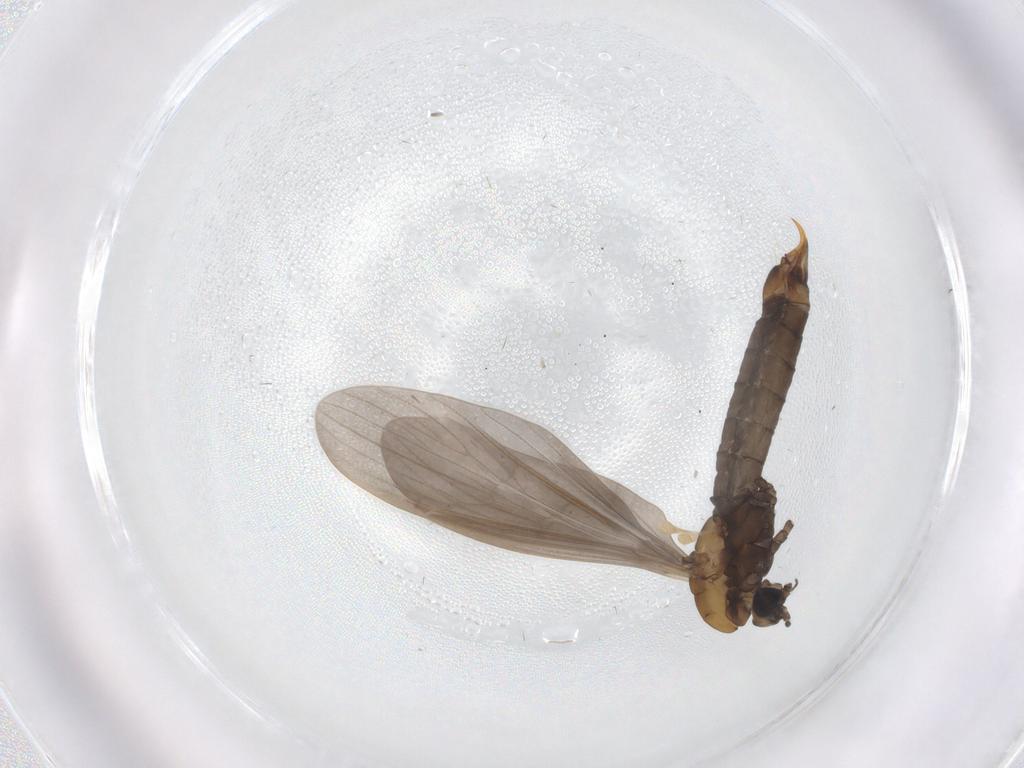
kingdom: Animalia
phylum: Arthropoda
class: Insecta
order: Diptera
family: Limoniidae
